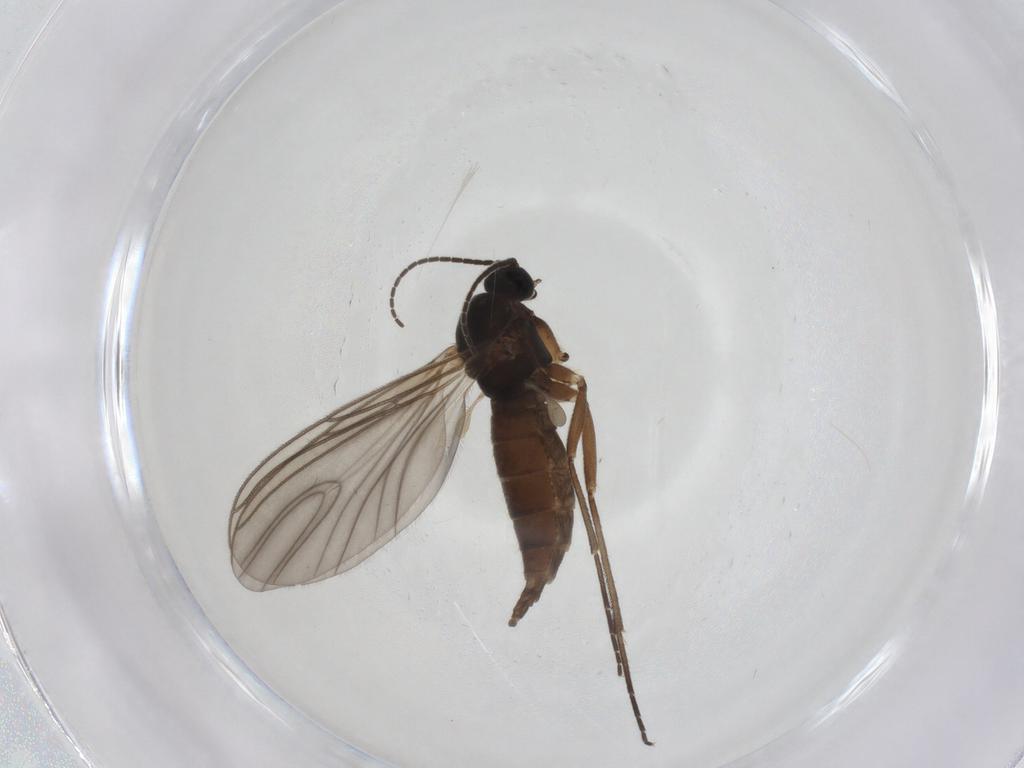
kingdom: Animalia
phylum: Arthropoda
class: Insecta
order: Diptera
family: Sciaridae
